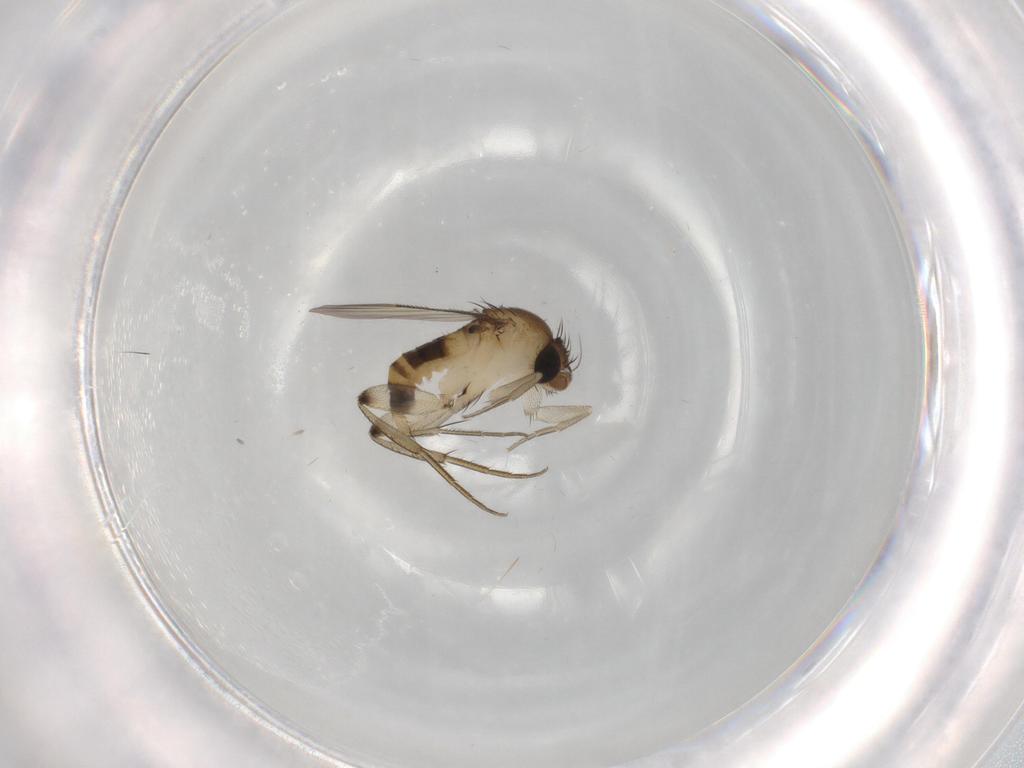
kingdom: Animalia
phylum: Arthropoda
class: Insecta
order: Diptera
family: Phoridae
